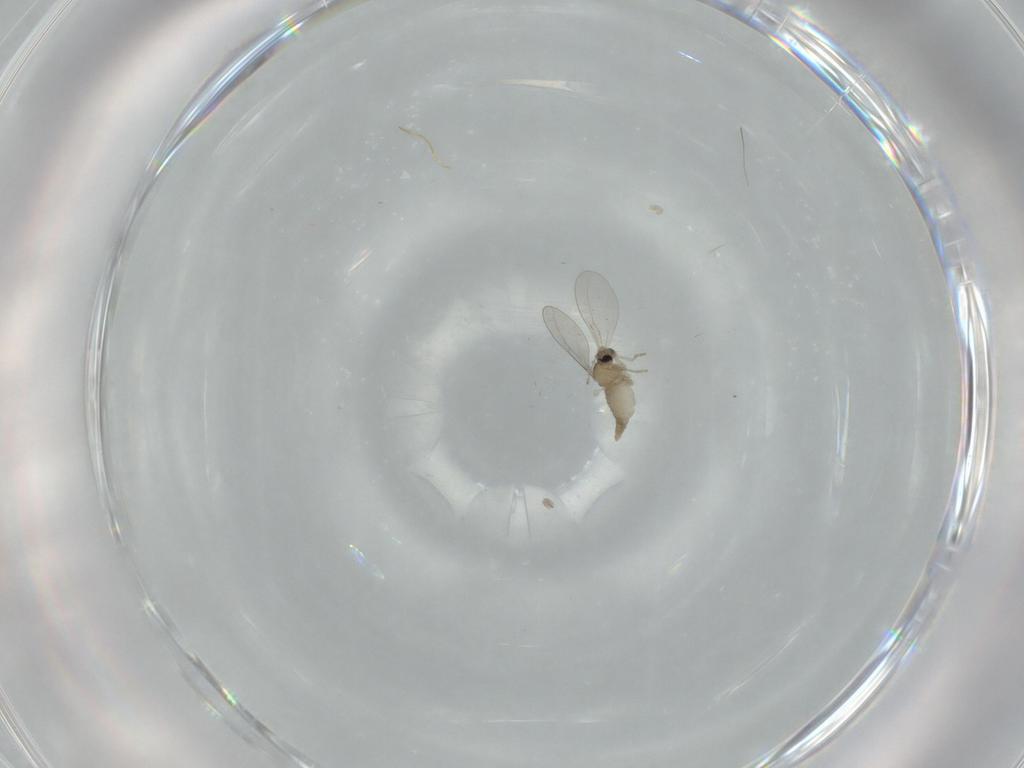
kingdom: Animalia
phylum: Arthropoda
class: Insecta
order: Diptera
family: Cecidomyiidae
